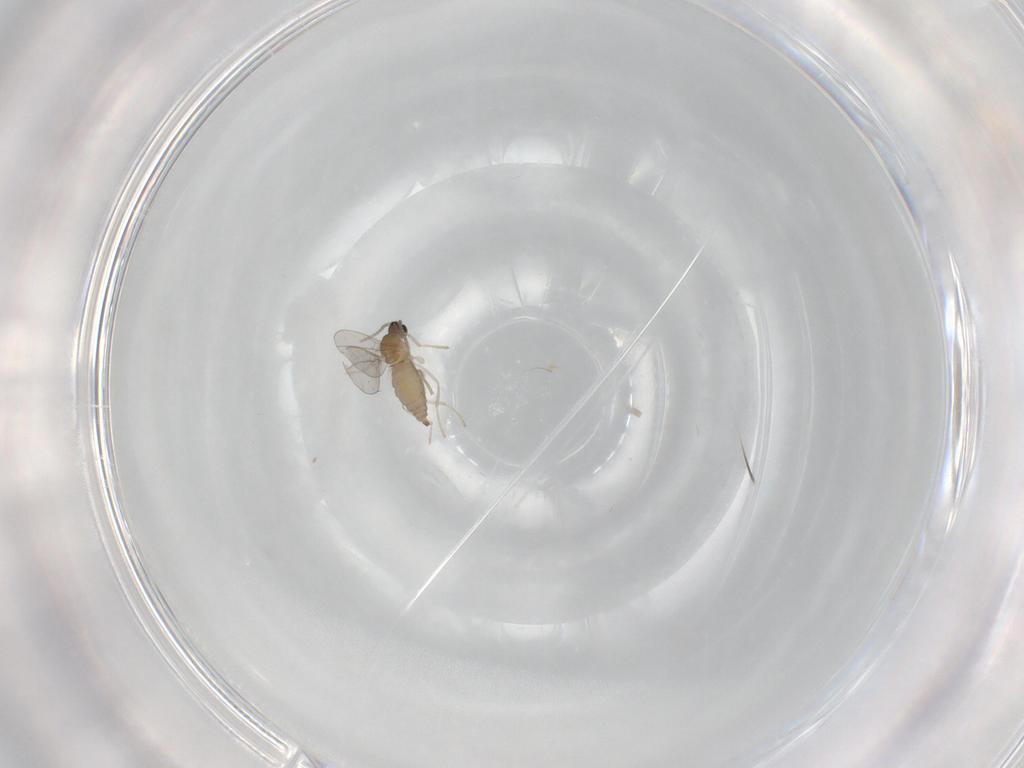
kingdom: Animalia
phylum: Arthropoda
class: Insecta
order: Diptera
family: Cecidomyiidae
